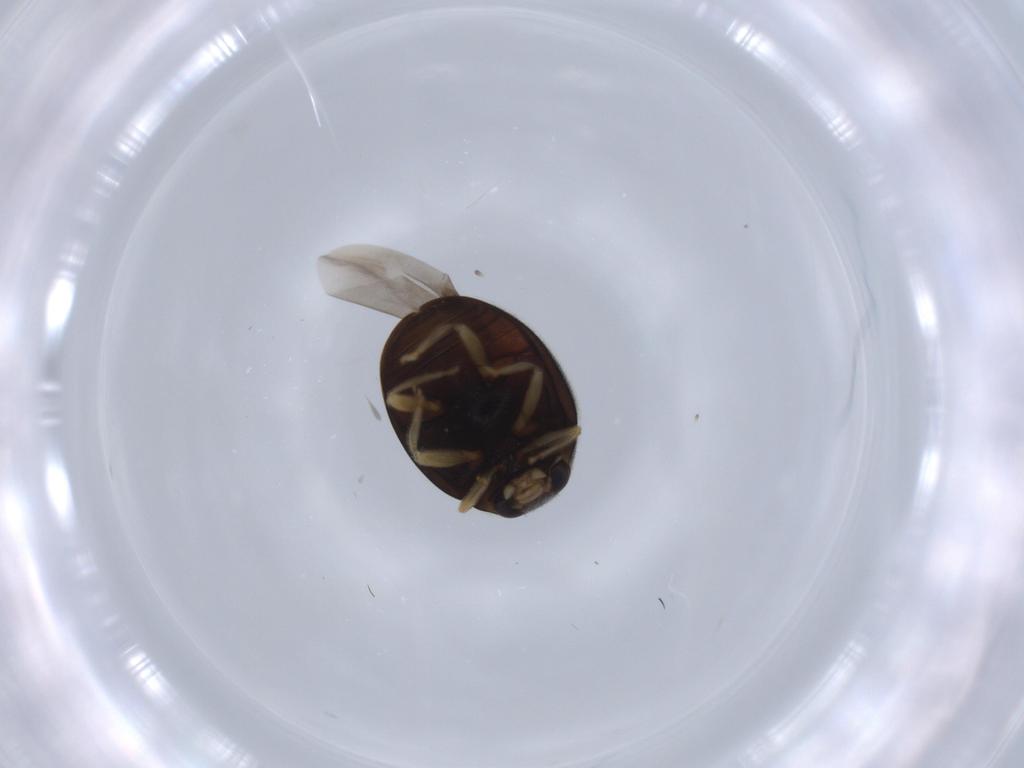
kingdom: Animalia
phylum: Arthropoda
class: Insecta
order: Coleoptera
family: Coccinellidae
